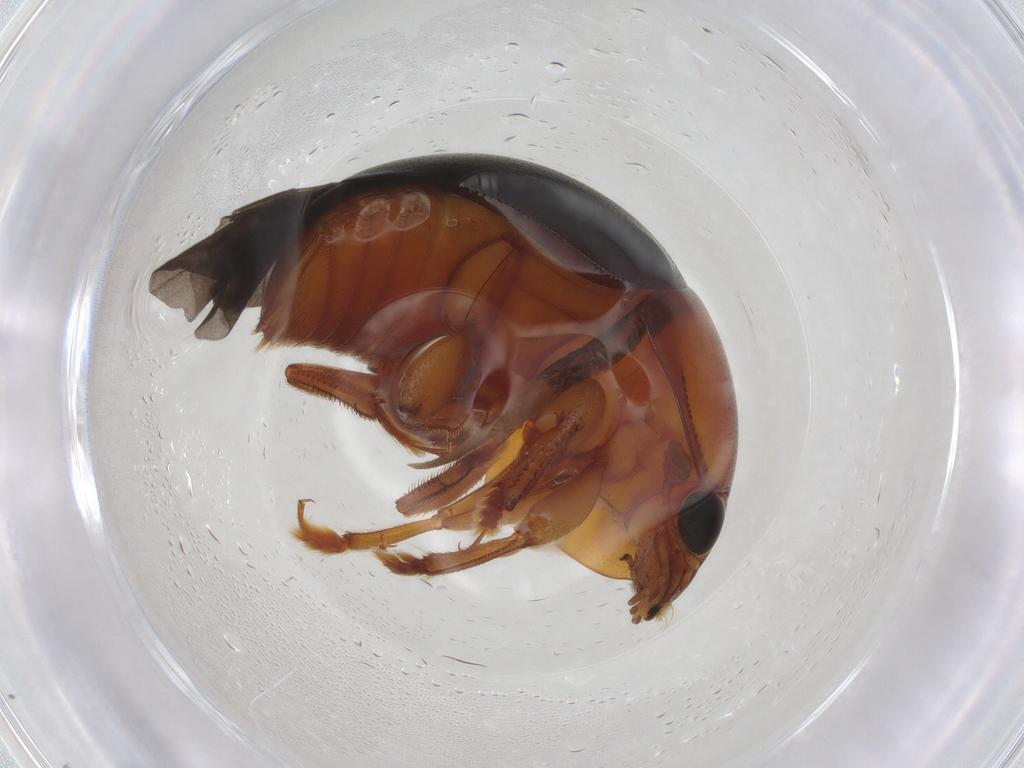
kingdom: Animalia
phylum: Arthropoda
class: Insecta
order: Coleoptera
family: Nitidulidae
